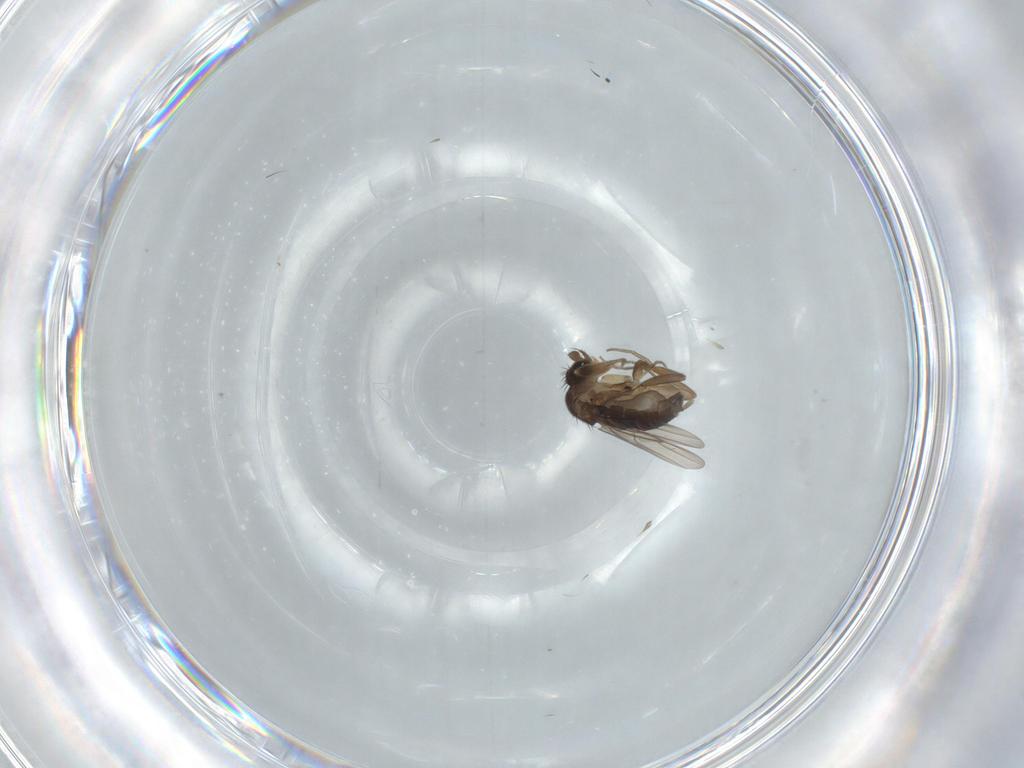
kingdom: Animalia
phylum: Arthropoda
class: Insecta
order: Diptera
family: Phoridae
